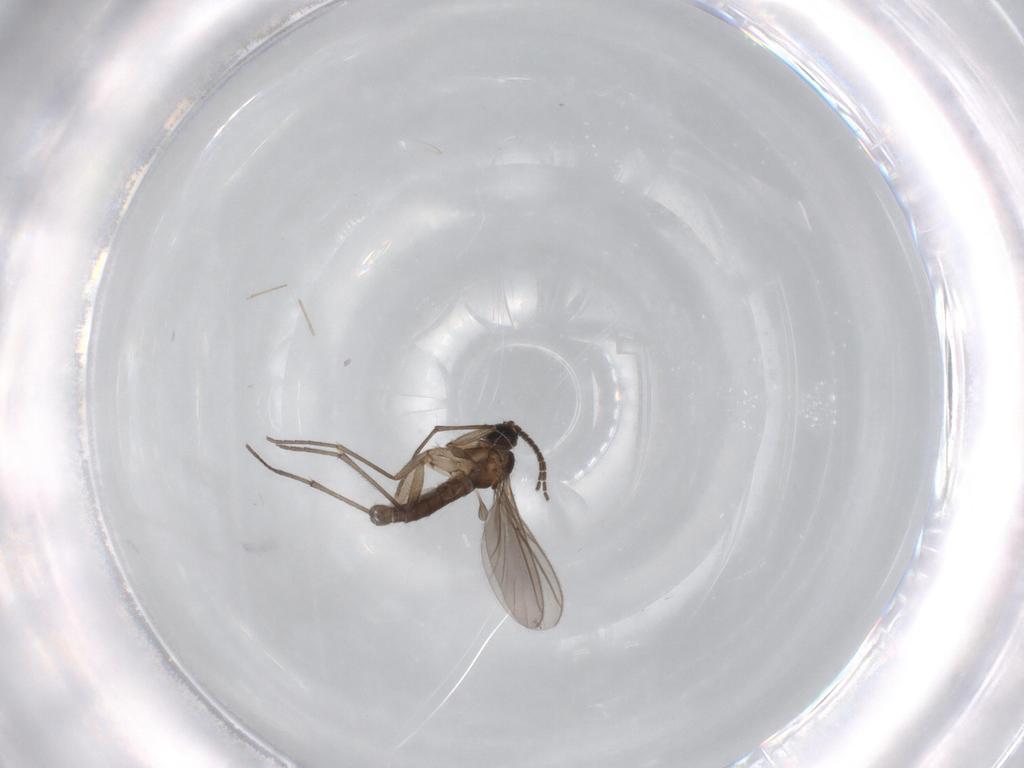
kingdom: Animalia
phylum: Arthropoda
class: Insecta
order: Diptera
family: Sciaridae
